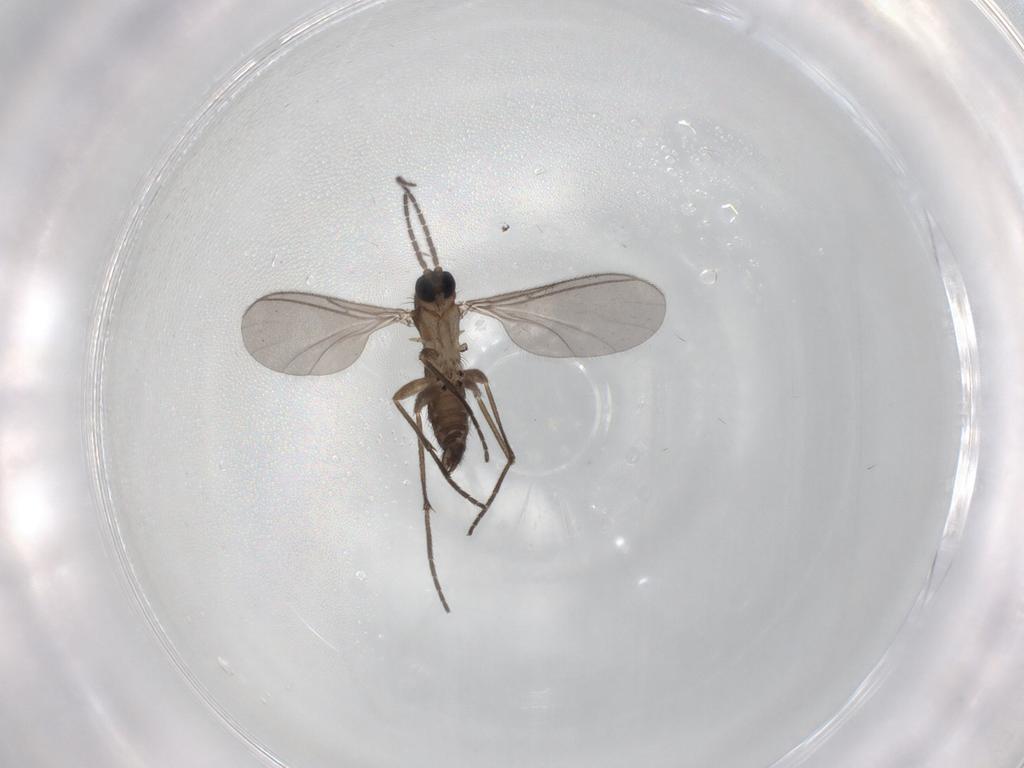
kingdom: Animalia
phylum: Arthropoda
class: Insecta
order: Diptera
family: Sciaridae
